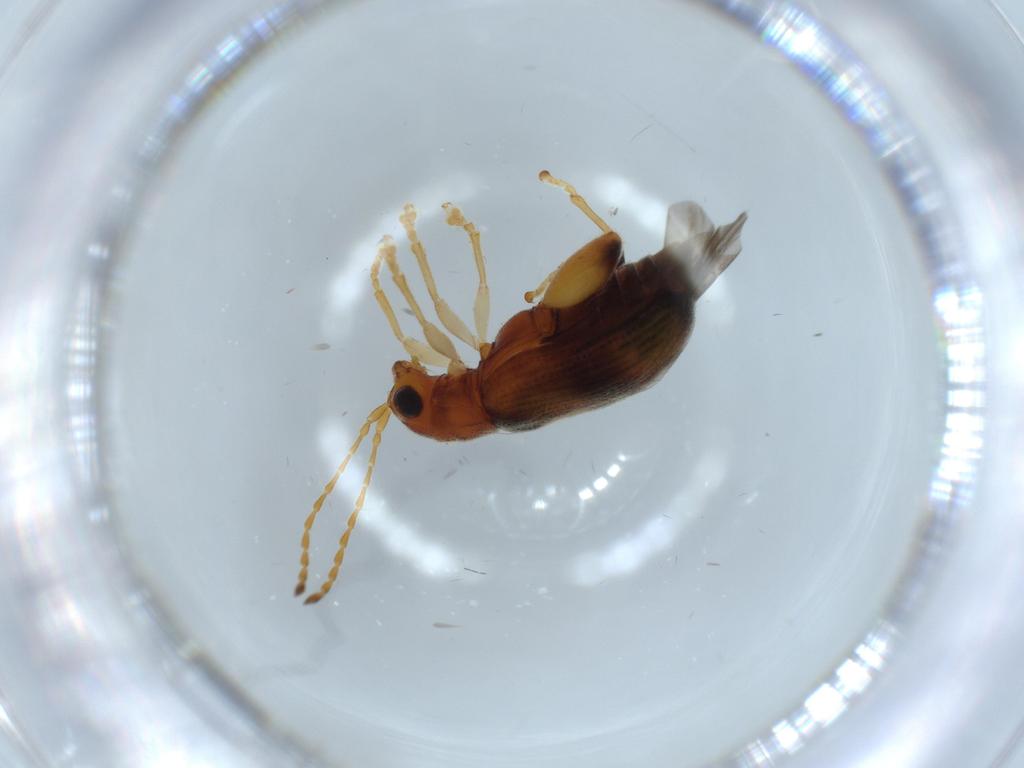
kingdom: Animalia
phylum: Arthropoda
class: Insecta
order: Coleoptera
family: Chrysomelidae
